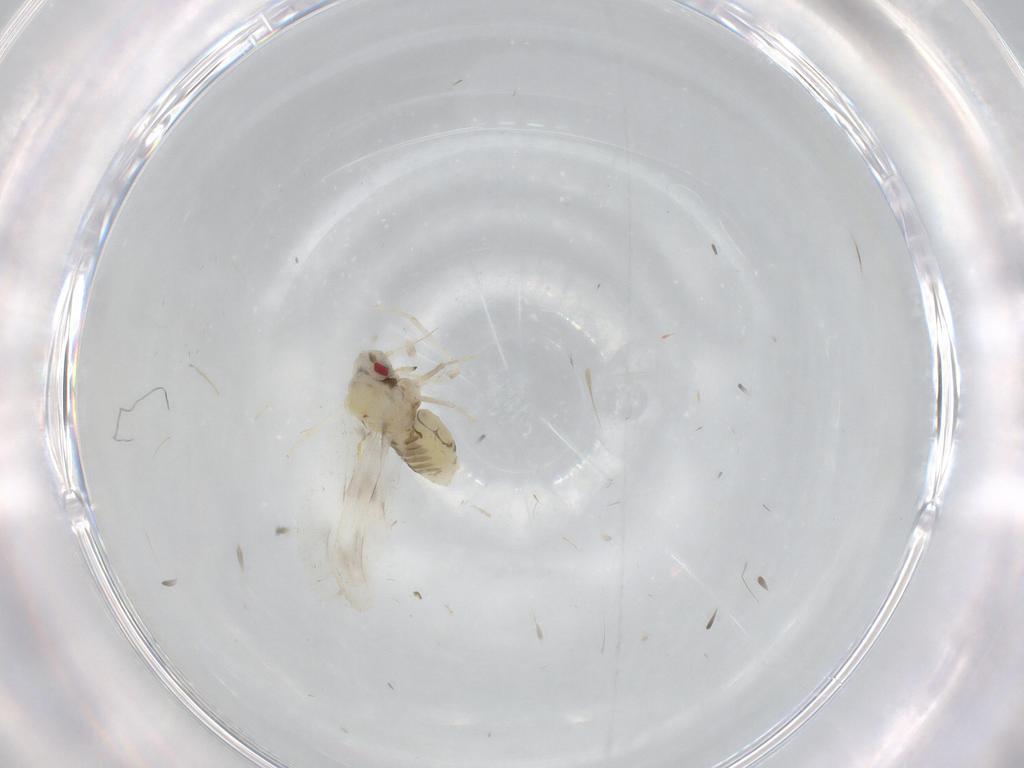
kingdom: Animalia
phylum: Arthropoda
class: Insecta
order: Hemiptera
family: Aleyrodidae
